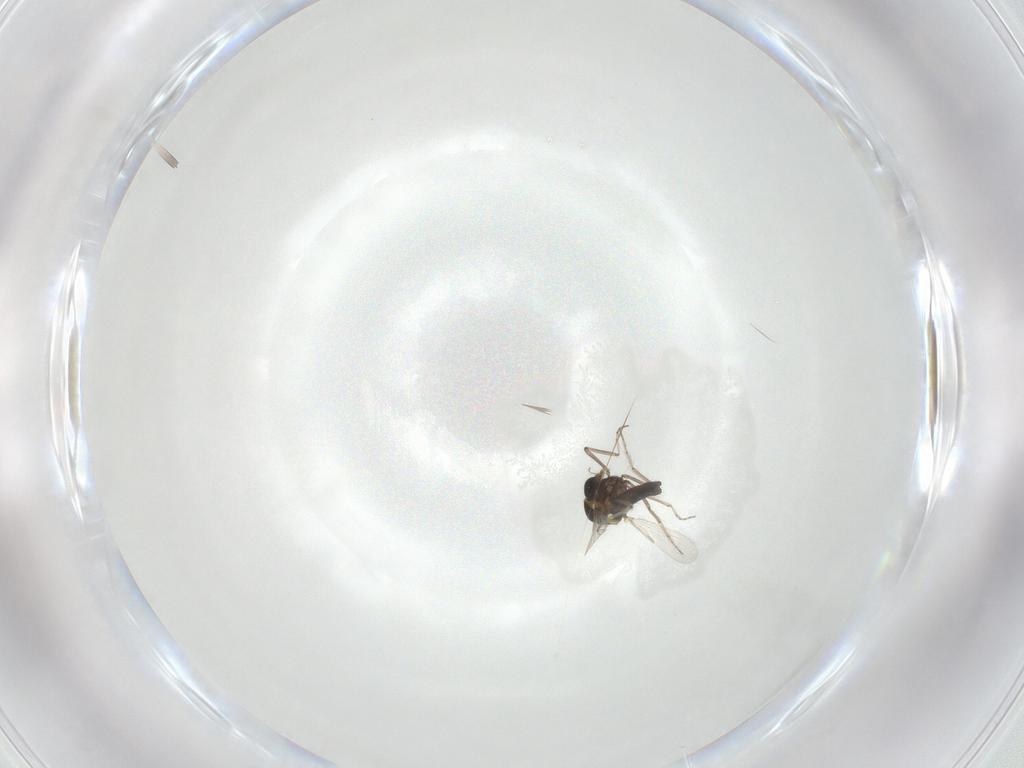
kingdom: Animalia
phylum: Arthropoda
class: Insecta
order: Diptera
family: Ceratopogonidae
